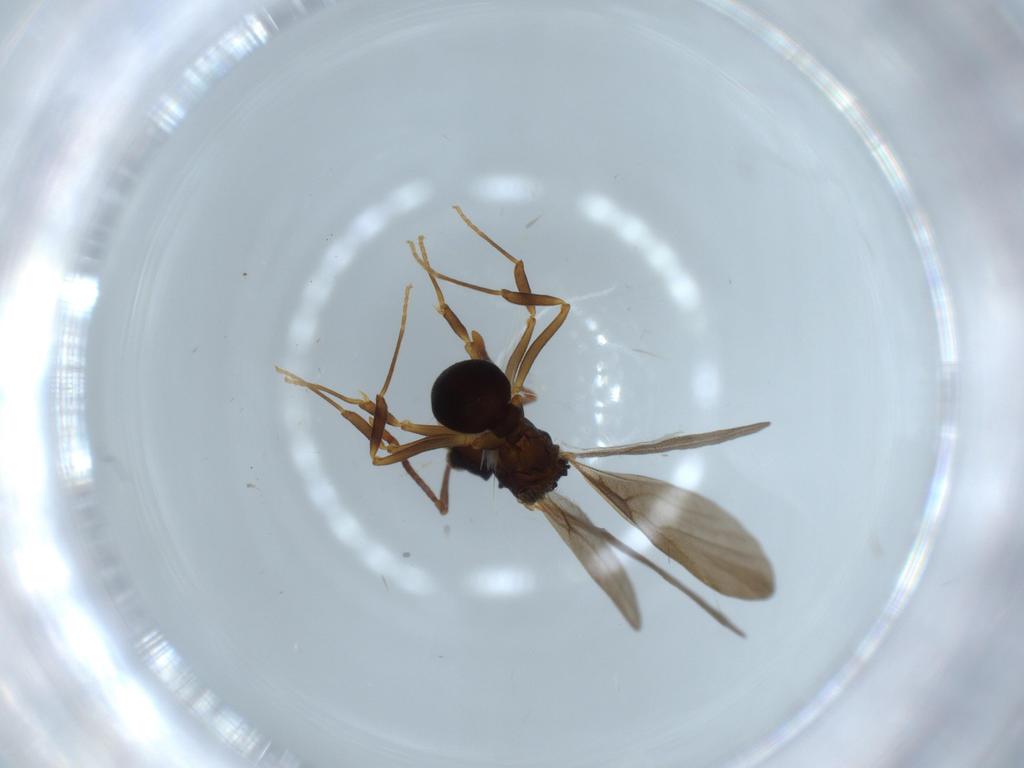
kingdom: Animalia
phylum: Arthropoda
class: Insecta
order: Hymenoptera
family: Formicidae
